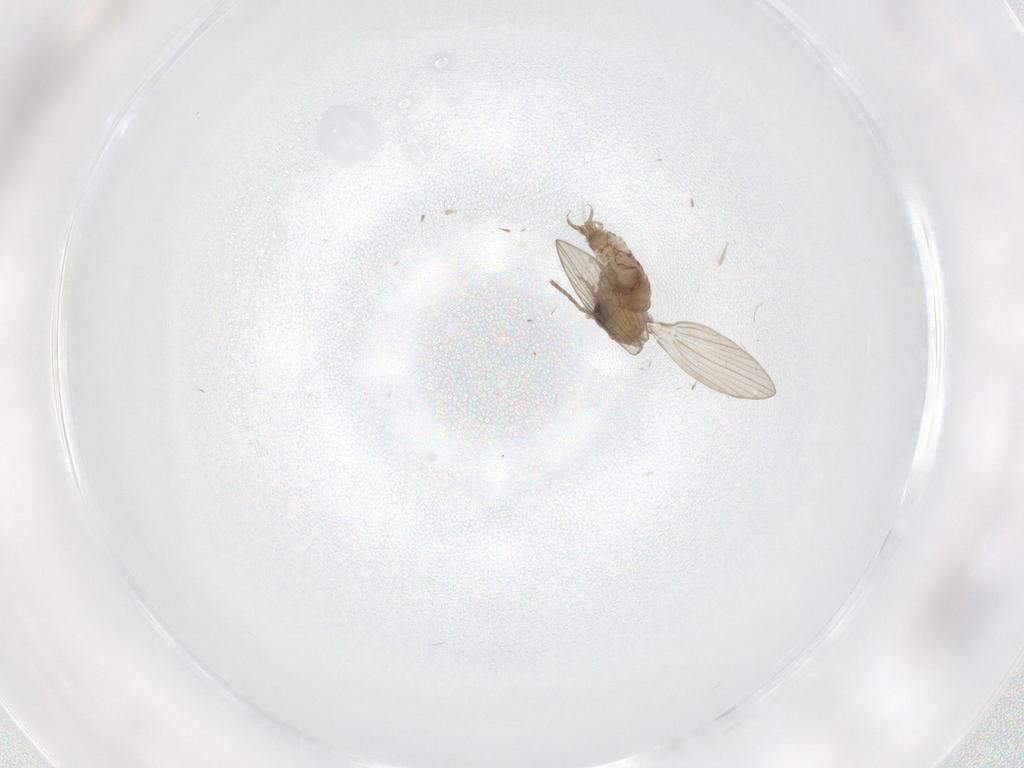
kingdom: Animalia
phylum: Arthropoda
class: Insecta
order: Diptera
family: Psychodidae
